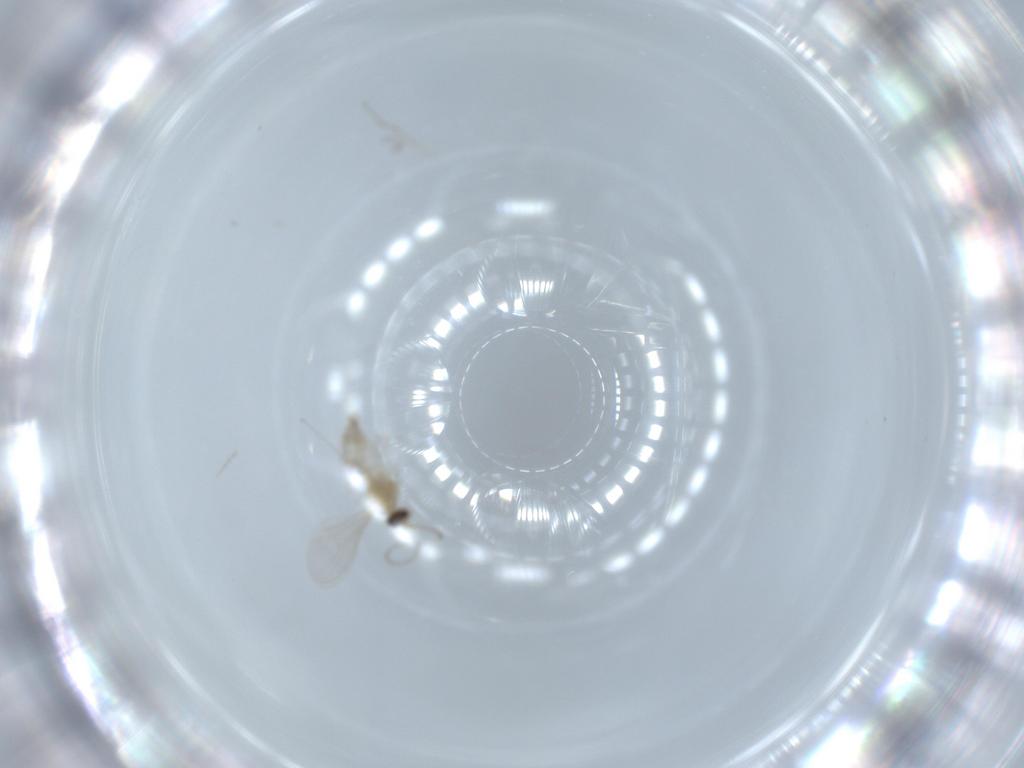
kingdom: Animalia
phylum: Arthropoda
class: Insecta
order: Diptera
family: Cecidomyiidae
